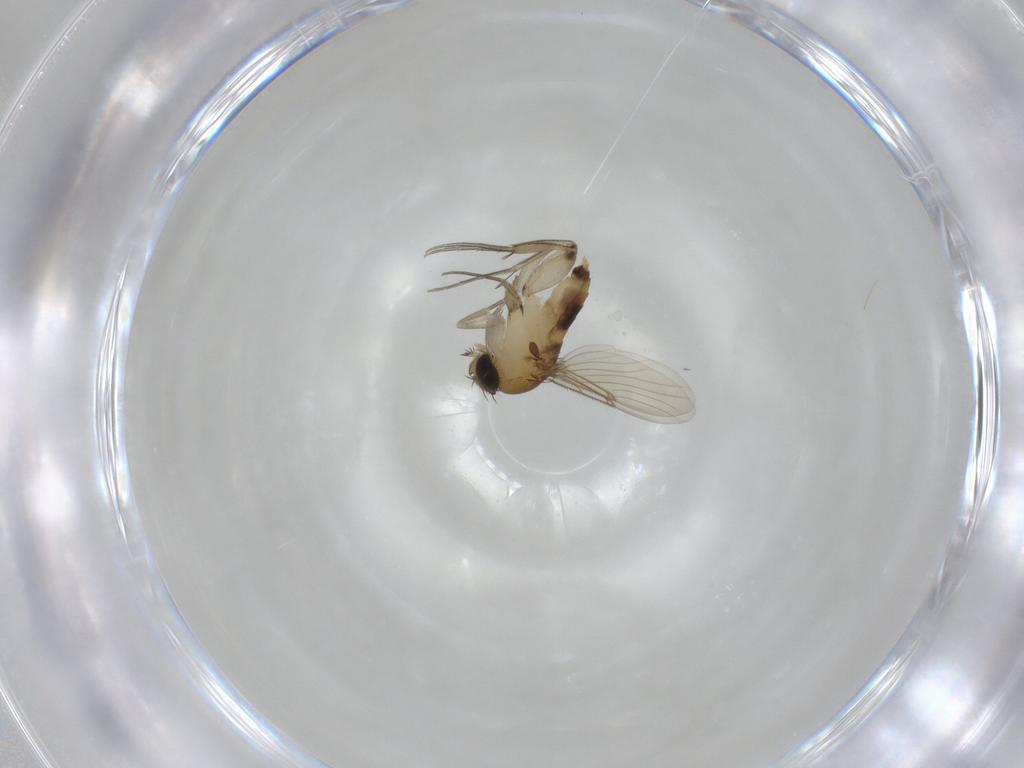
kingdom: Animalia
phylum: Arthropoda
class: Insecta
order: Diptera
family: Phoridae
